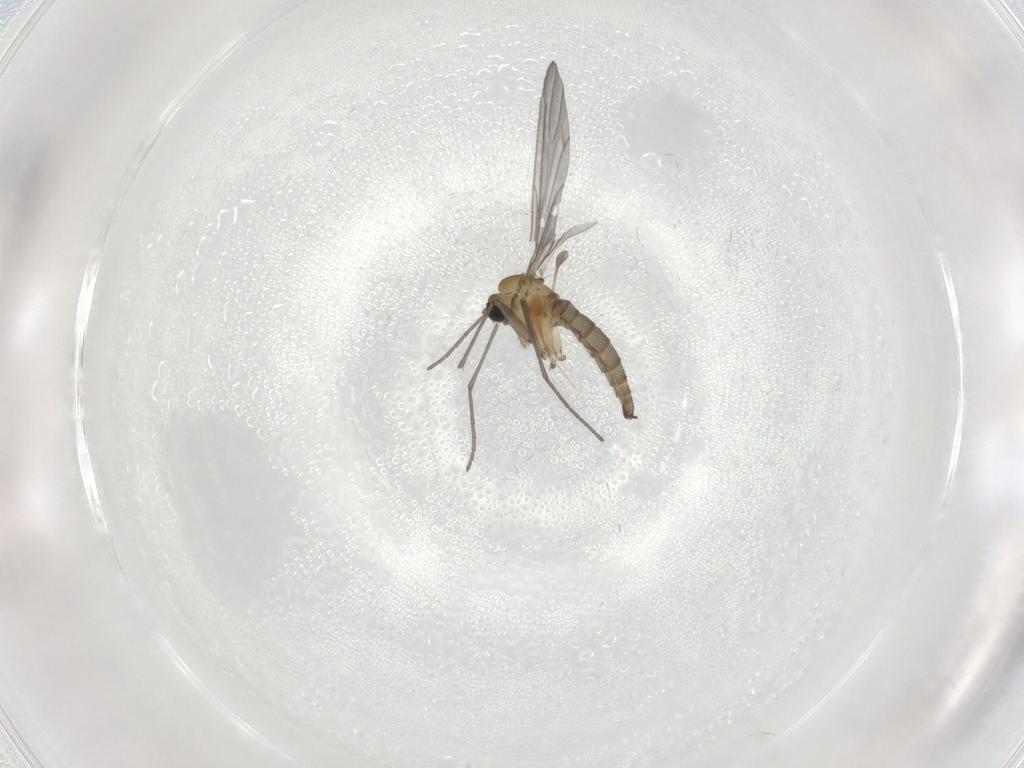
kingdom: Animalia
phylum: Arthropoda
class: Insecta
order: Diptera
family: Sciaridae
